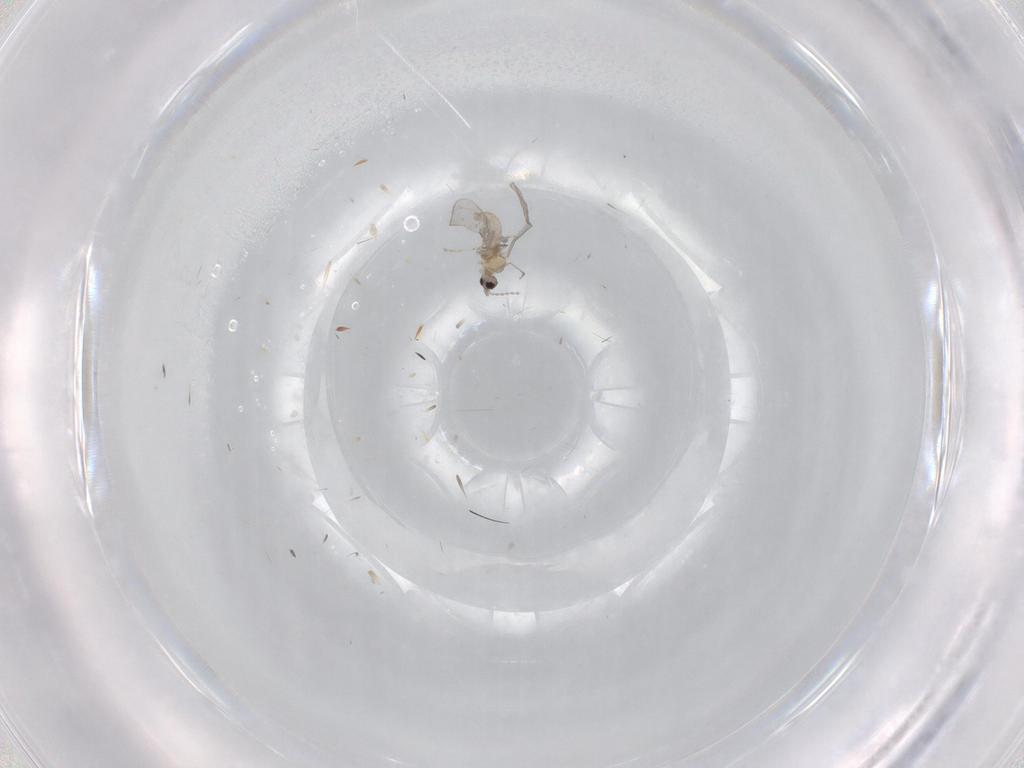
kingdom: Animalia
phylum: Arthropoda
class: Insecta
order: Diptera
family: Cecidomyiidae
